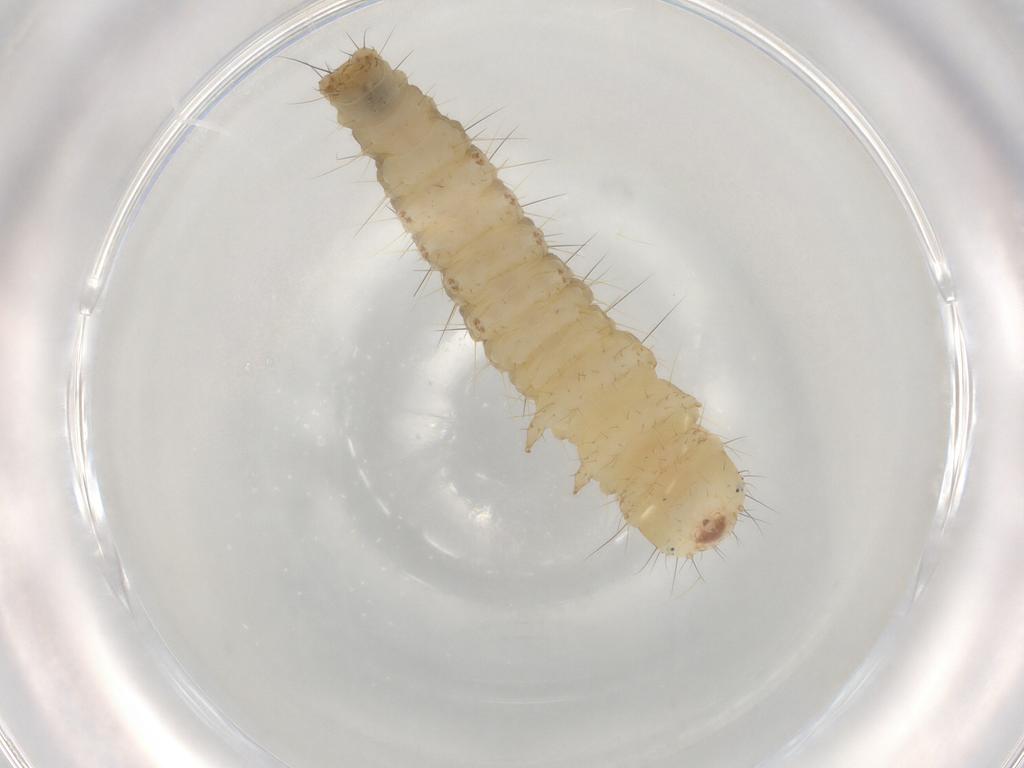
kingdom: Animalia
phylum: Arthropoda
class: Insecta
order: Lepidoptera
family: Gelechiidae
